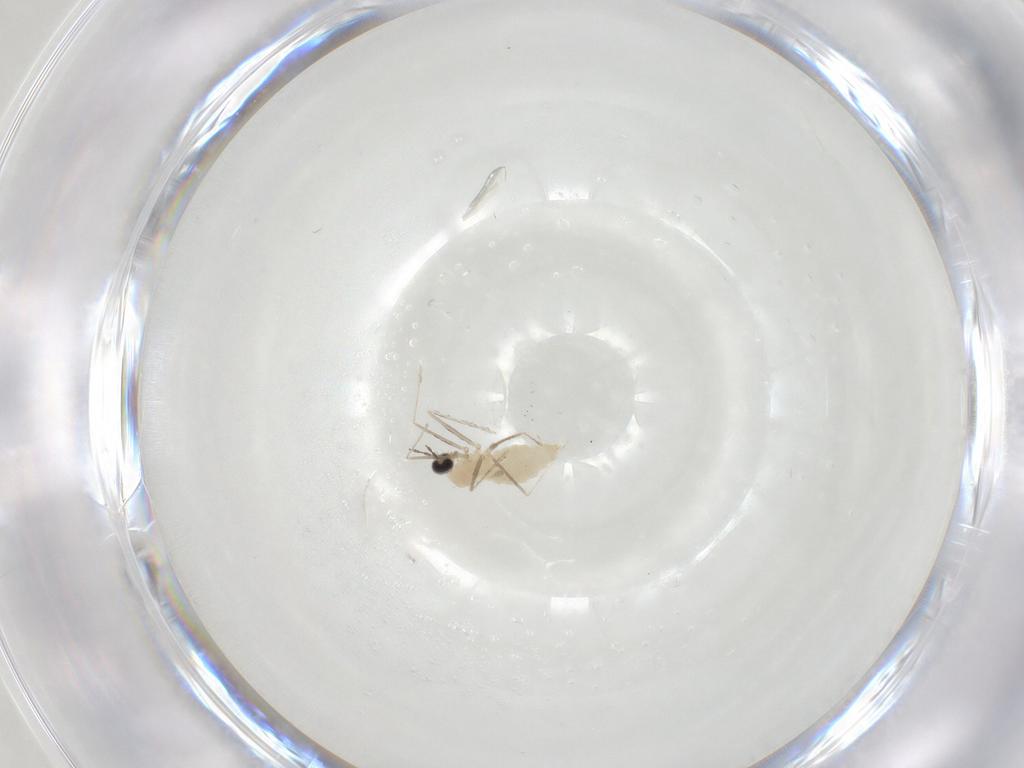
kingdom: Animalia
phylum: Arthropoda
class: Insecta
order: Diptera
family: Cecidomyiidae
